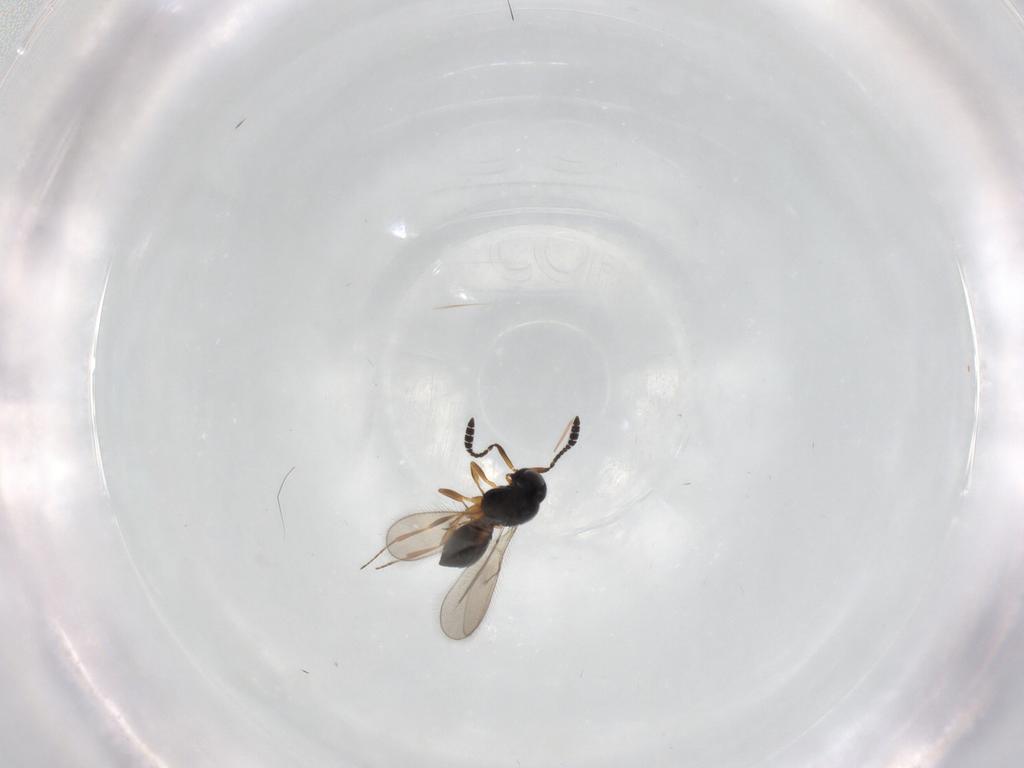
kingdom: Animalia
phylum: Arthropoda
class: Insecta
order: Hymenoptera
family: Scelionidae
